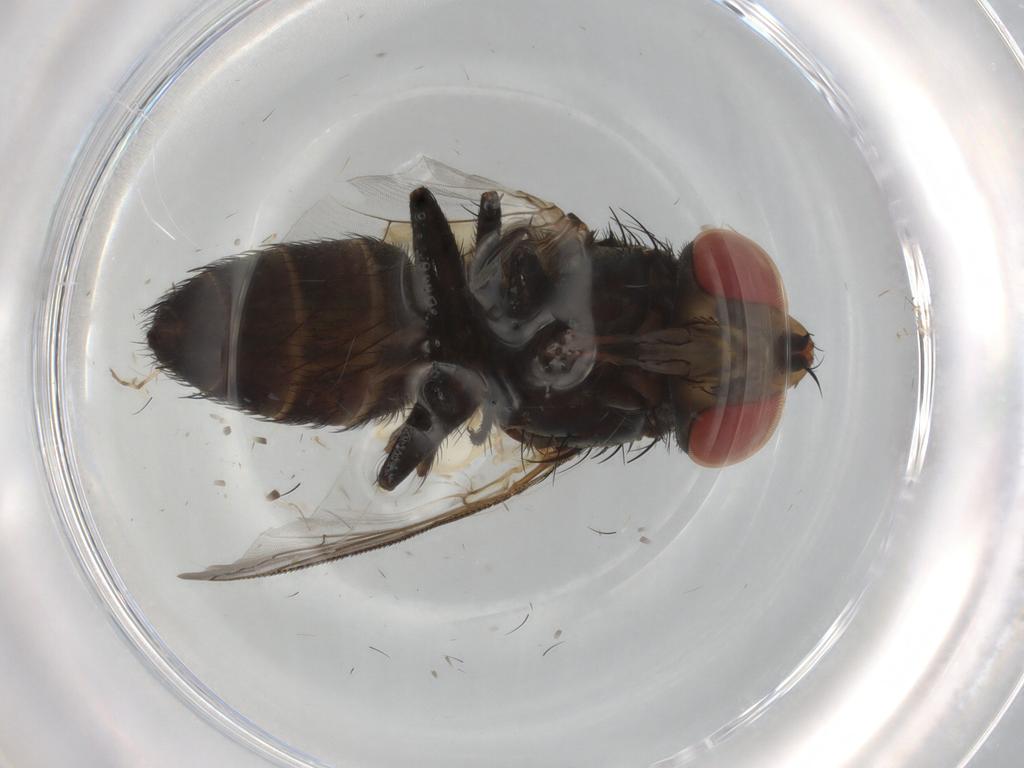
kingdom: Animalia
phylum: Arthropoda
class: Insecta
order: Diptera
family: Sarcophagidae
